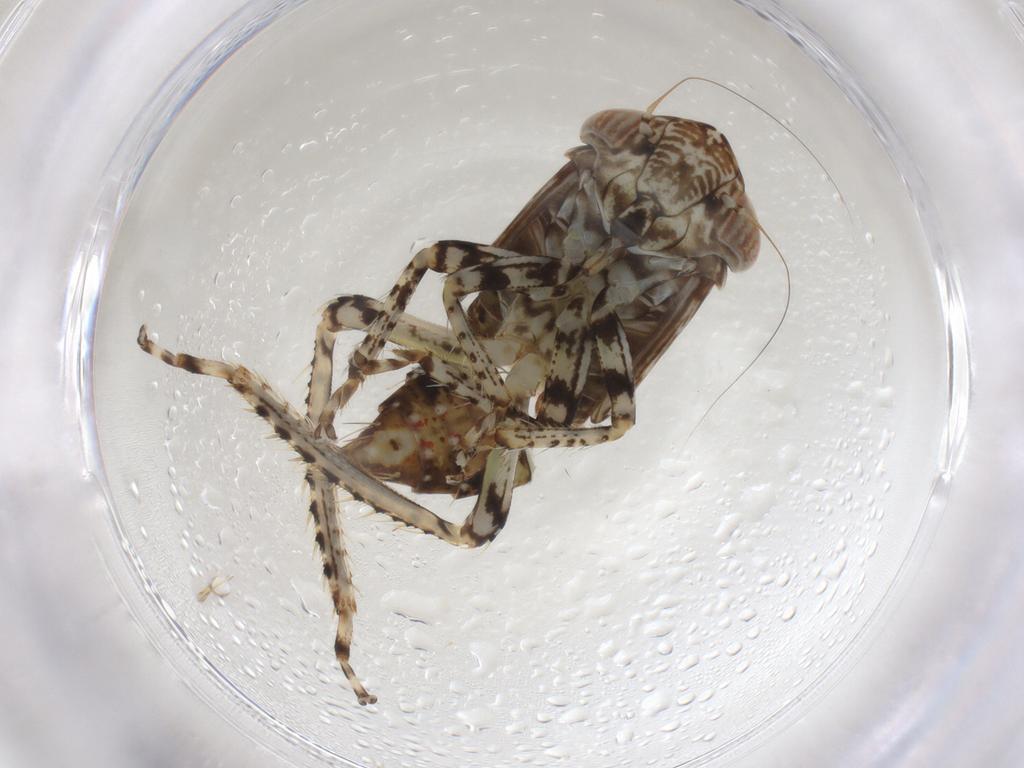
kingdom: Animalia
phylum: Arthropoda
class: Insecta
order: Hemiptera
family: Cicadellidae
